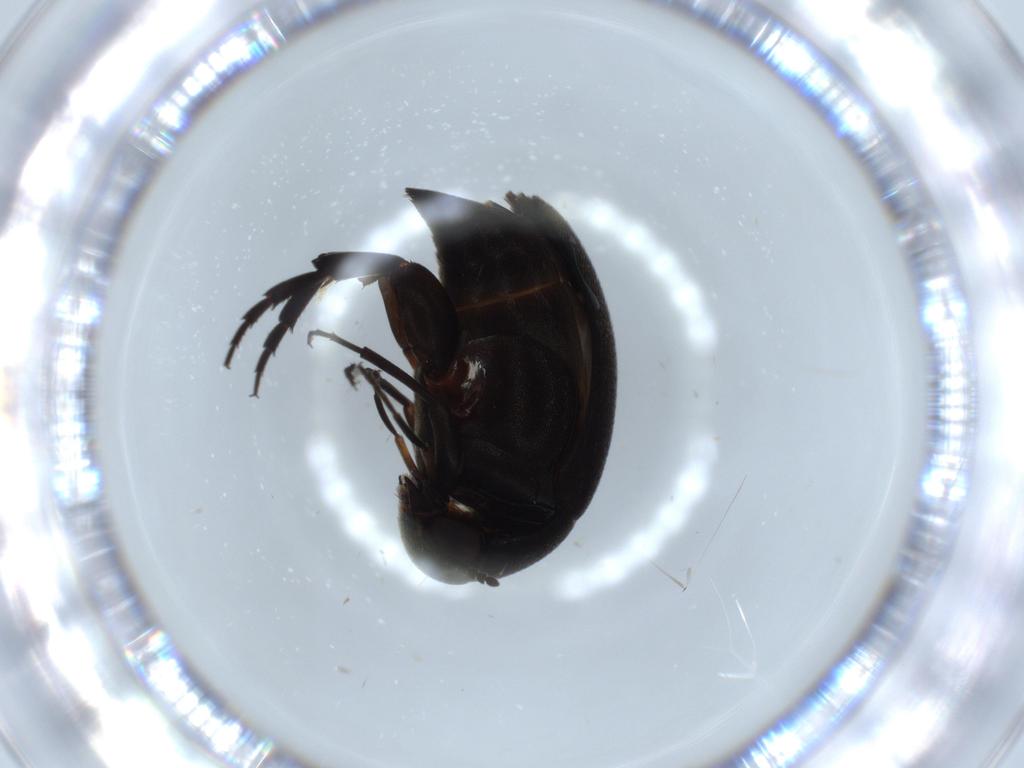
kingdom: Animalia
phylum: Arthropoda
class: Insecta
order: Coleoptera
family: Mordellidae
